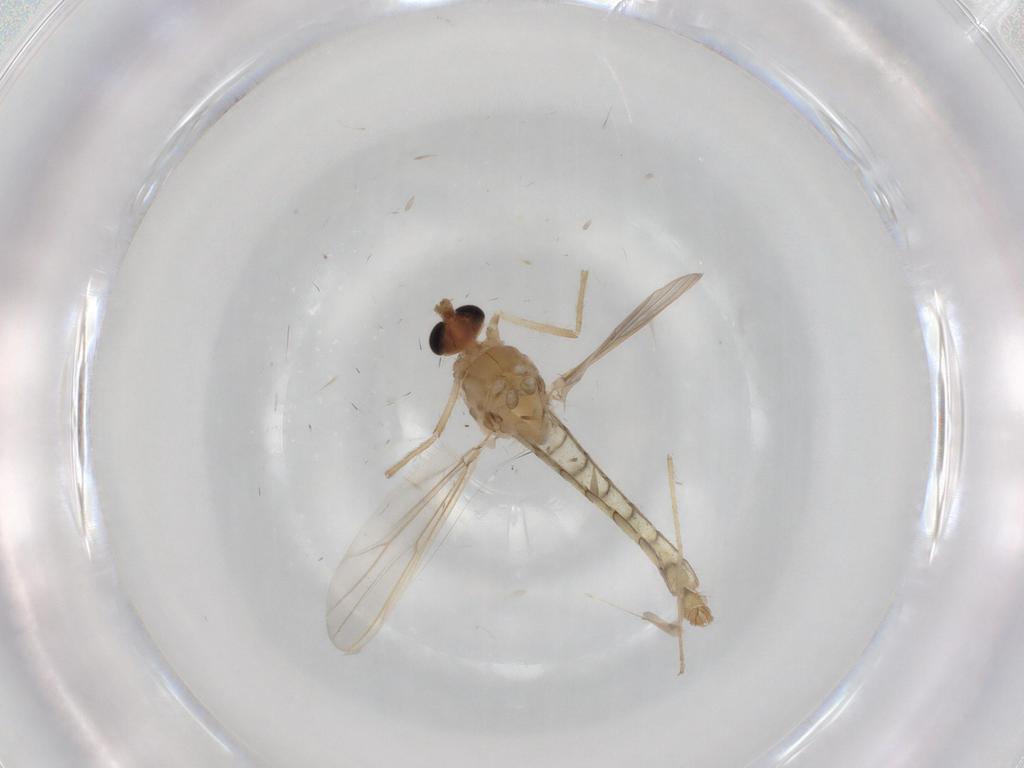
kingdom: Animalia
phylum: Arthropoda
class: Insecta
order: Diptera
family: Chironomidae
